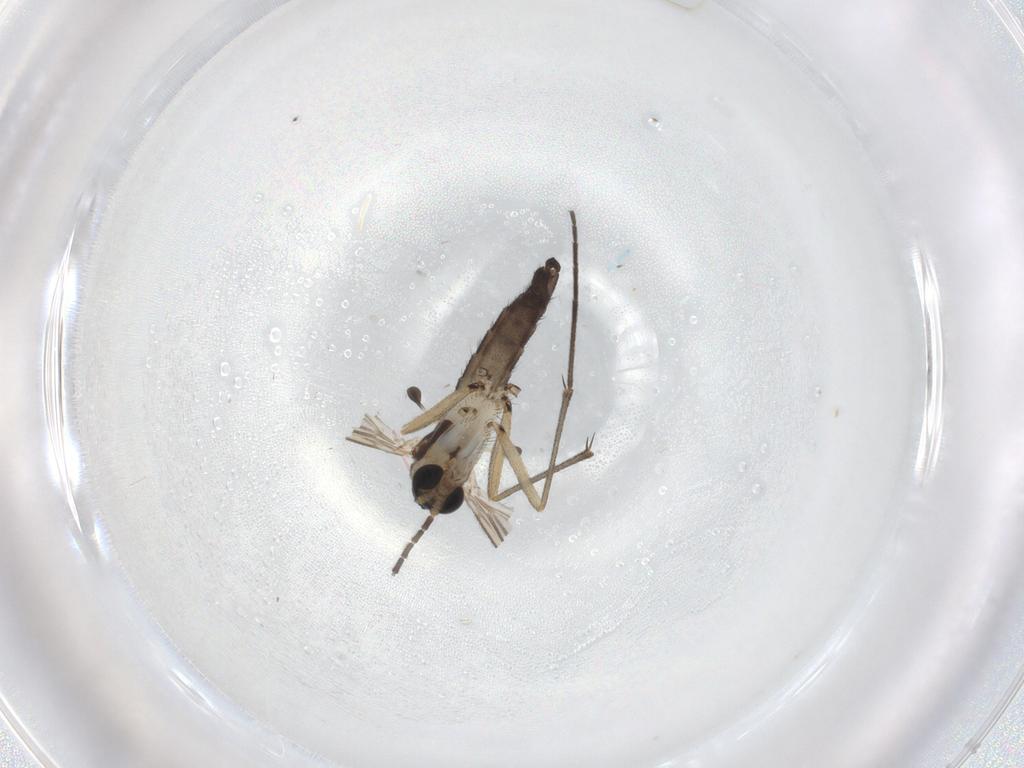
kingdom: Animalia
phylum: Arthropoda
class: Insecta
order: Diptera
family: Sciaridae
